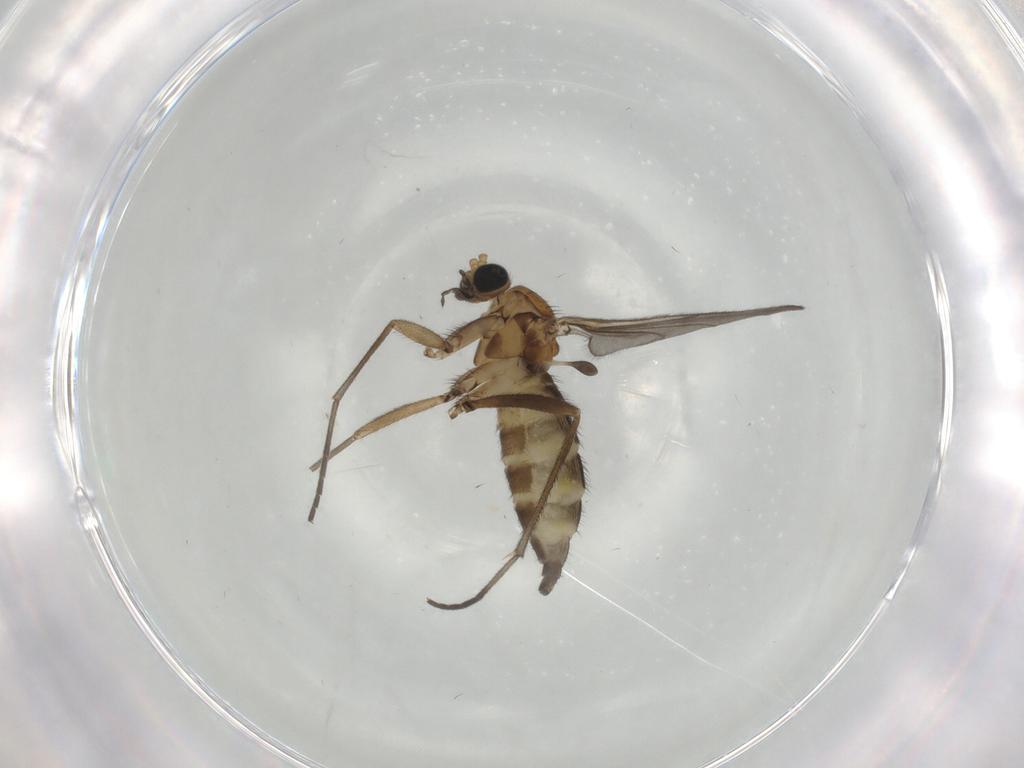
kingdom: Animalia
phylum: Arthropoda
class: Insecta
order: Diptera
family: Sciaridae
